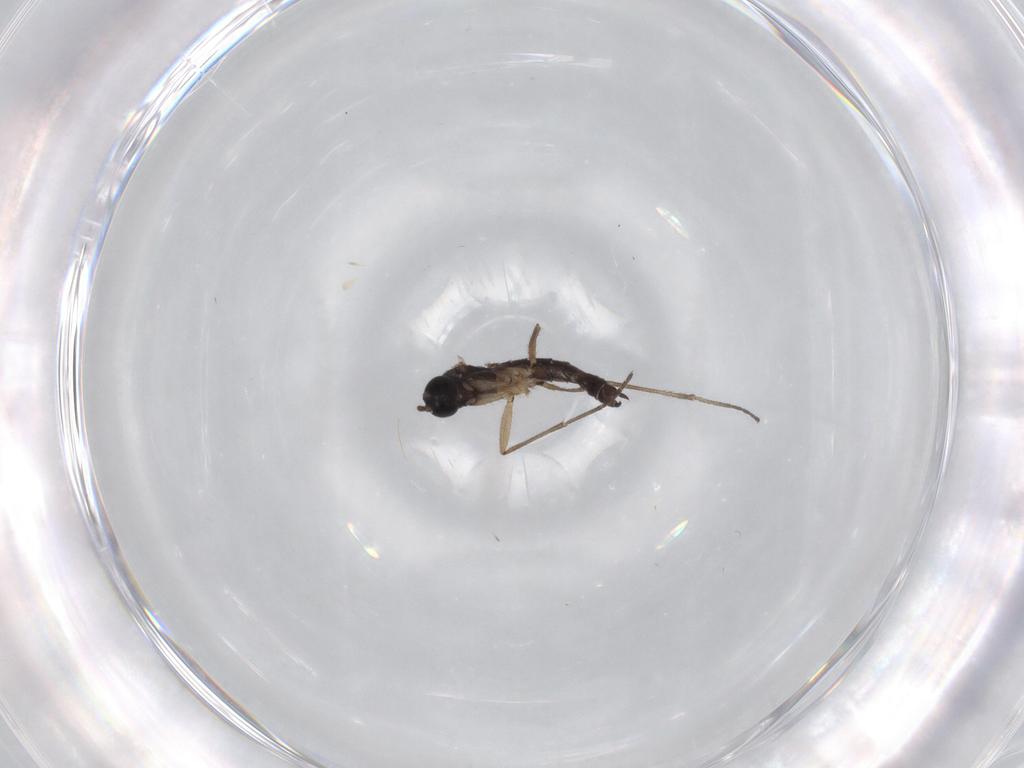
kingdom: Animalia
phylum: Arthropoda
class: Insecta
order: Diptera
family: Sciaridae
